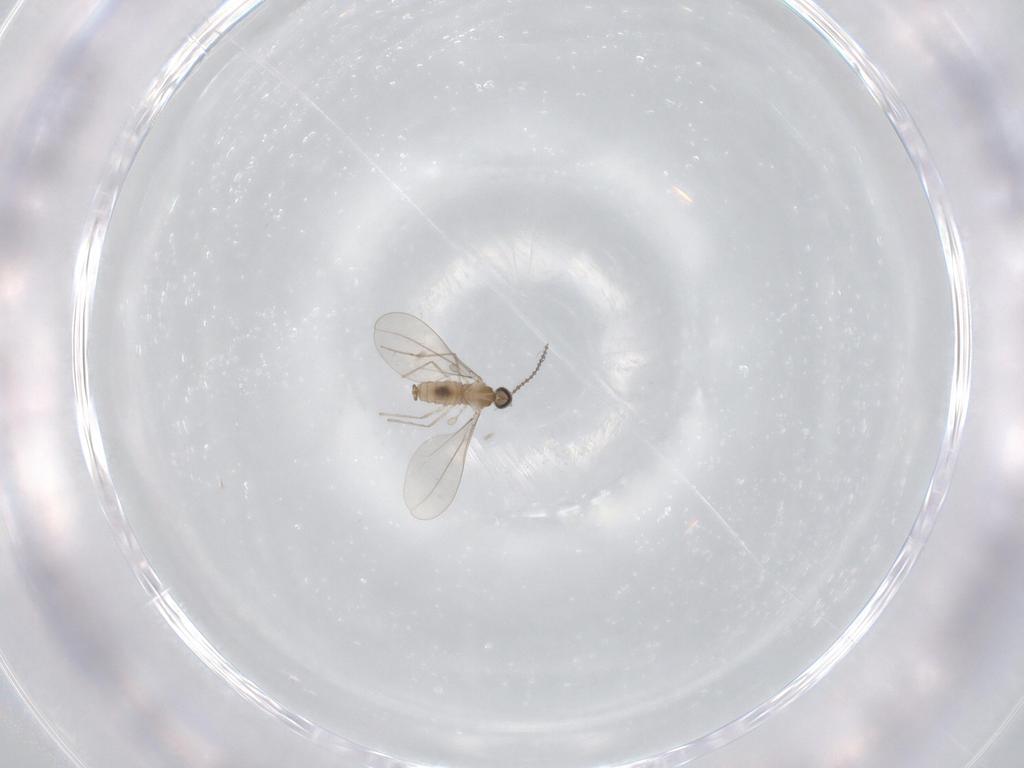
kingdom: Animalia
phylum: Arthropoda
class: Insecta
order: Diptera
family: Cecidomyiidae
